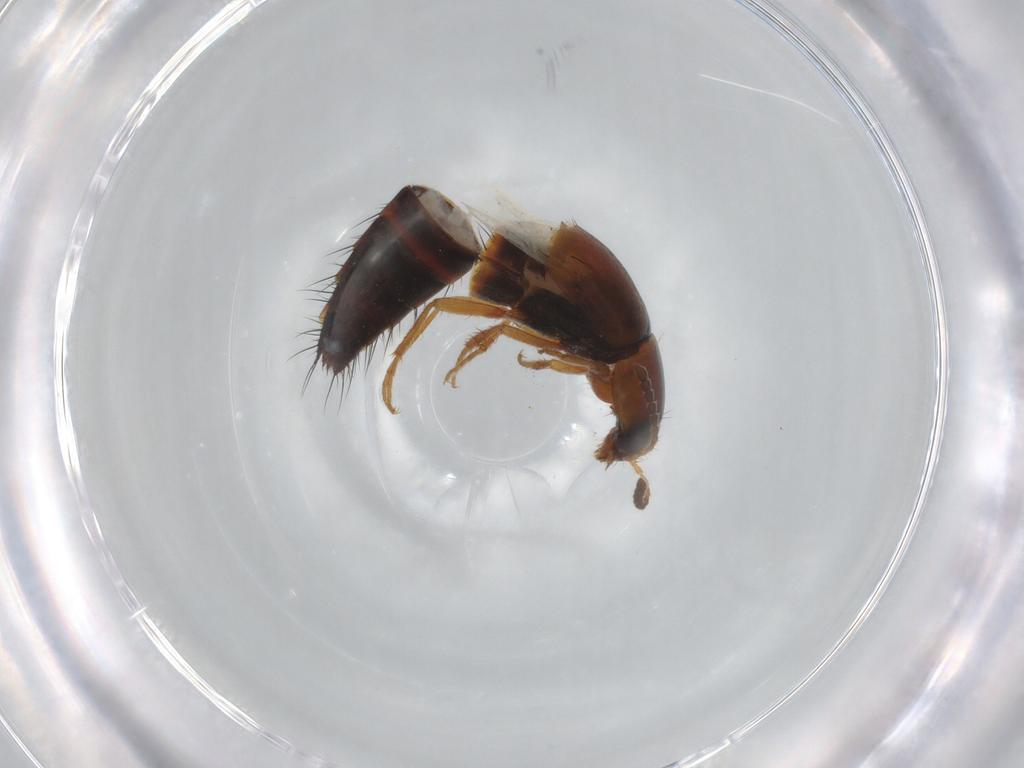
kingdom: Animalia
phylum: Arthropoda
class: Insecta
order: Coleoptera
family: Staphylinidae
